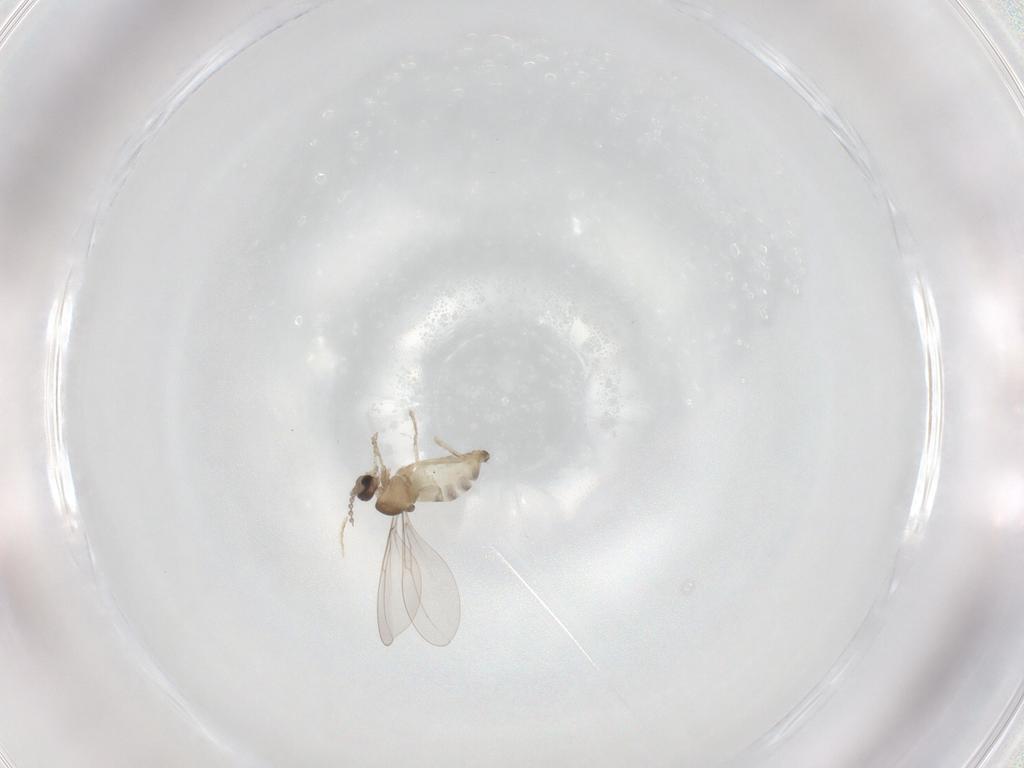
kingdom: Animalia
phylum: Arthropoda
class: Insecta
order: Diptera
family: Cecidomyiidae
